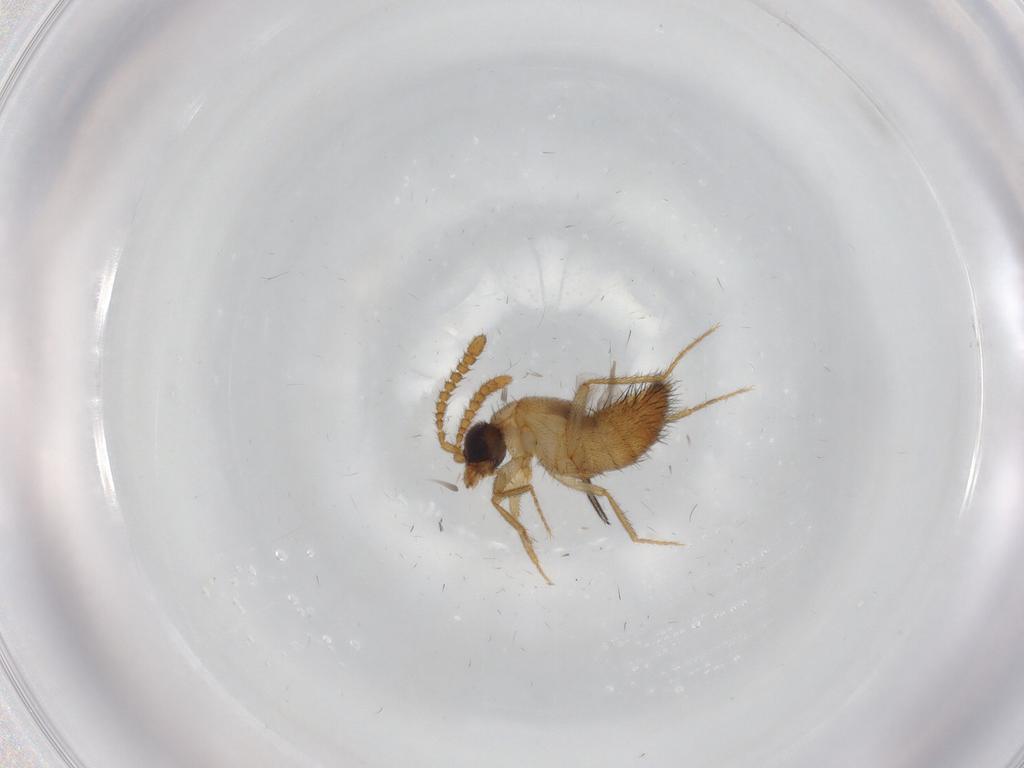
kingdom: Animalia
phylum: Arthropoda
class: Insecta
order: Coleoptera
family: Staphylinidae
